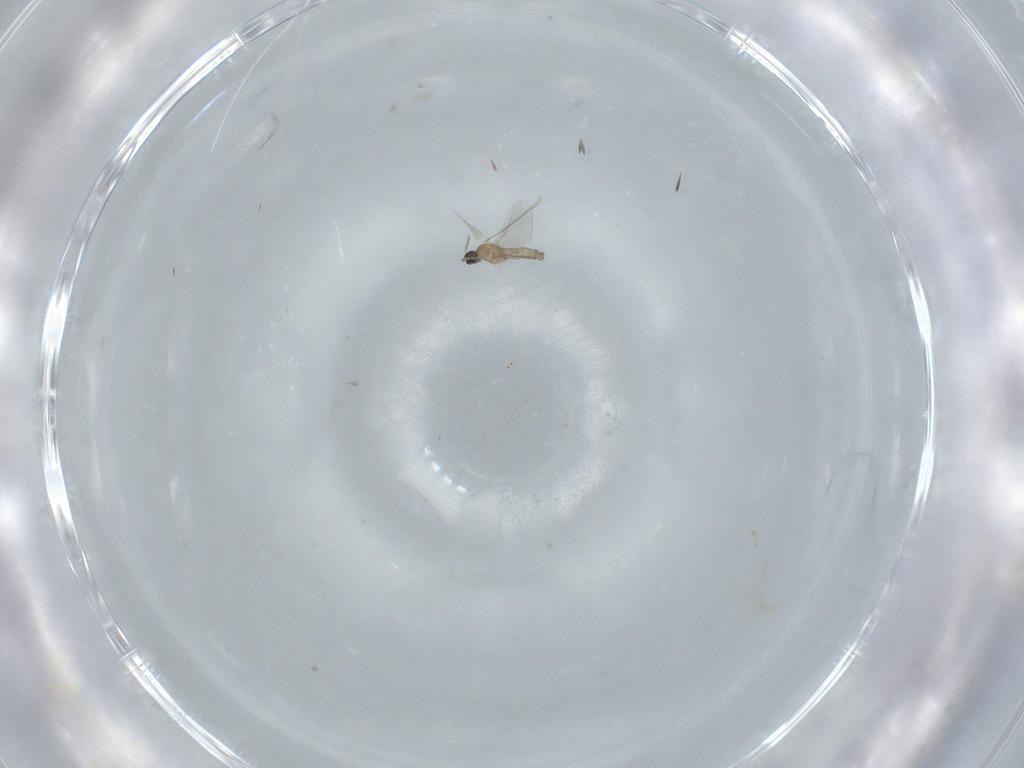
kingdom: Animalia
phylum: Arthropoda
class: Insecta
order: Diptera
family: Cecidomyiidae
